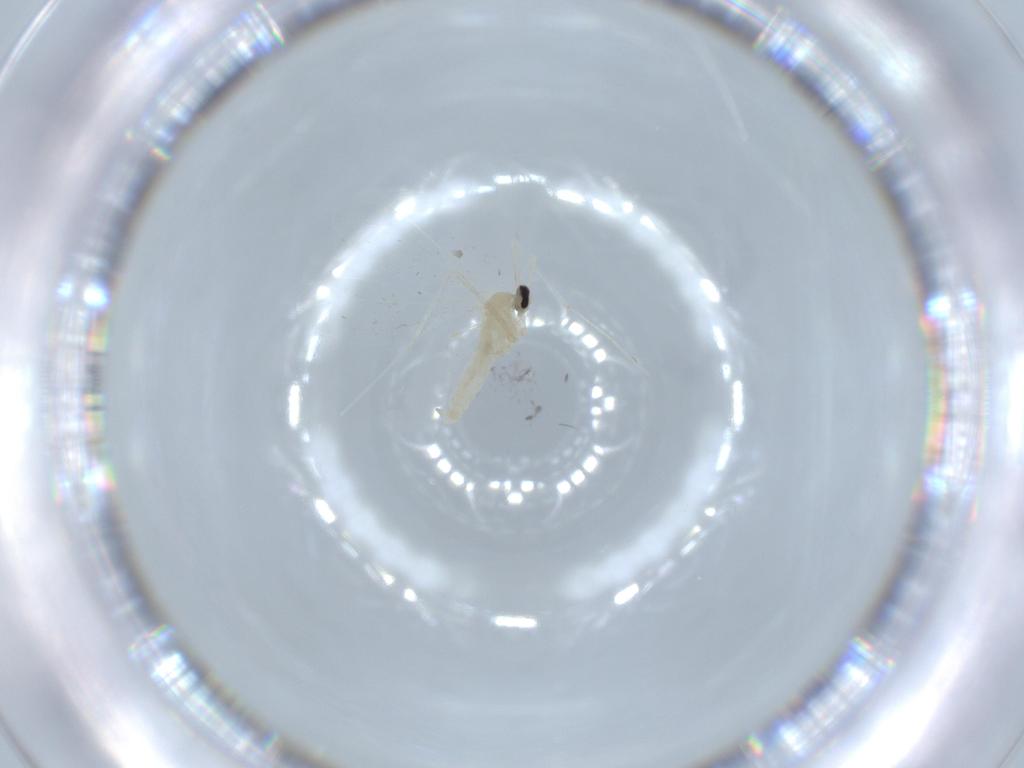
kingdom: Animalia
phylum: Arthropoda
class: Insecta
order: Diptera
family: Cecidomyiidae
